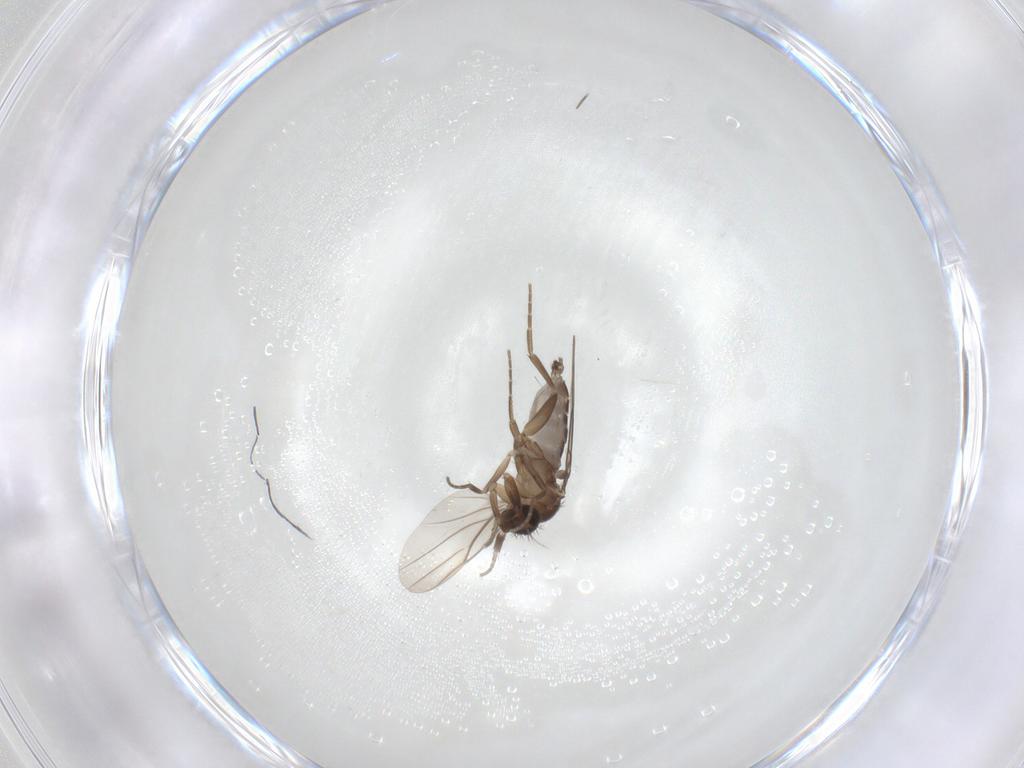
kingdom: Animalia
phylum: Arthropoda
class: Insecta
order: Diptera
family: Chironomidae
